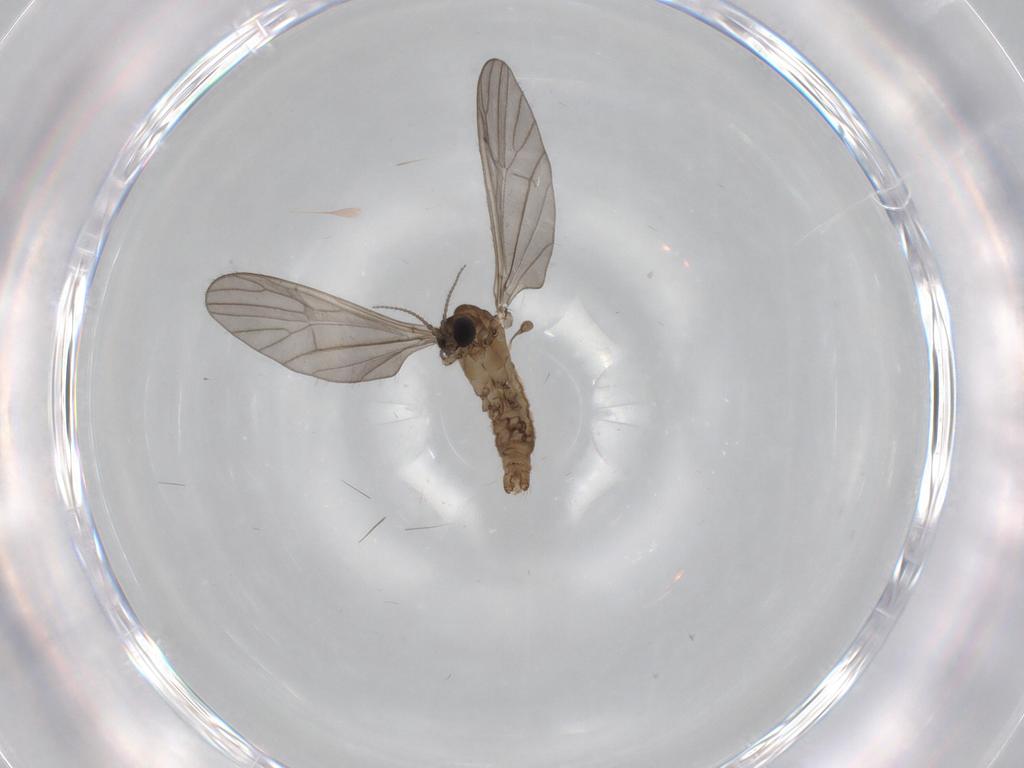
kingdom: Animalia
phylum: Arthropoda
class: Insecta
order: Diptera
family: Limoniidae
